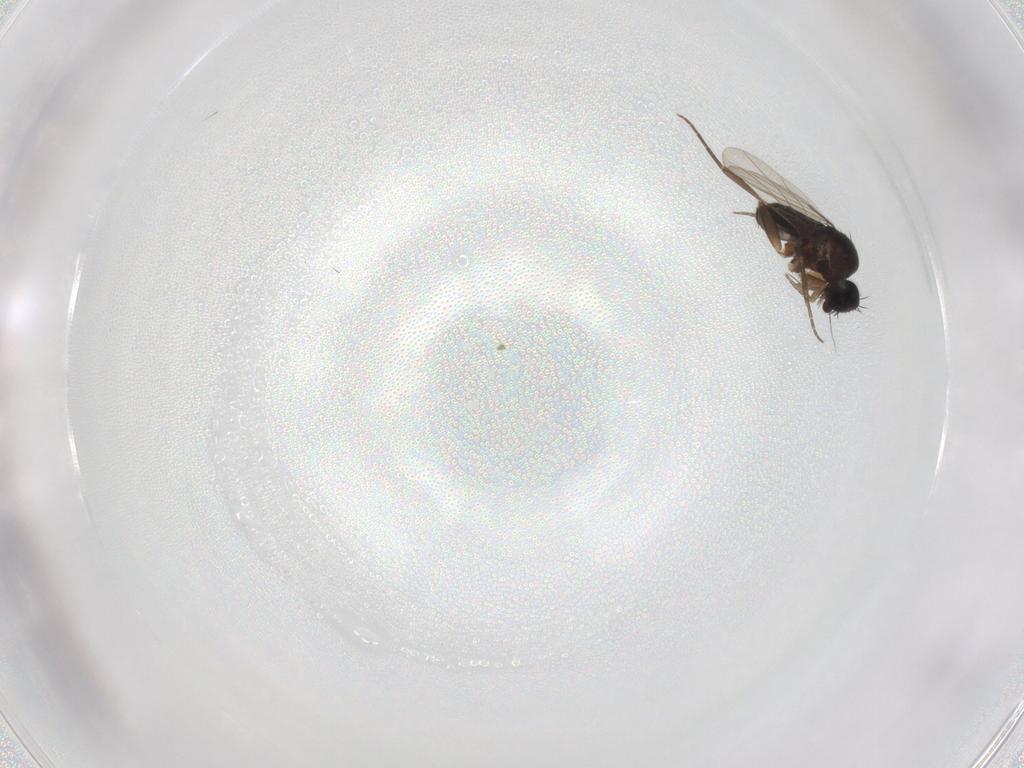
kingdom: Animalia
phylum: Arthropoda
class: Insecta
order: Diptera
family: Phoridae
